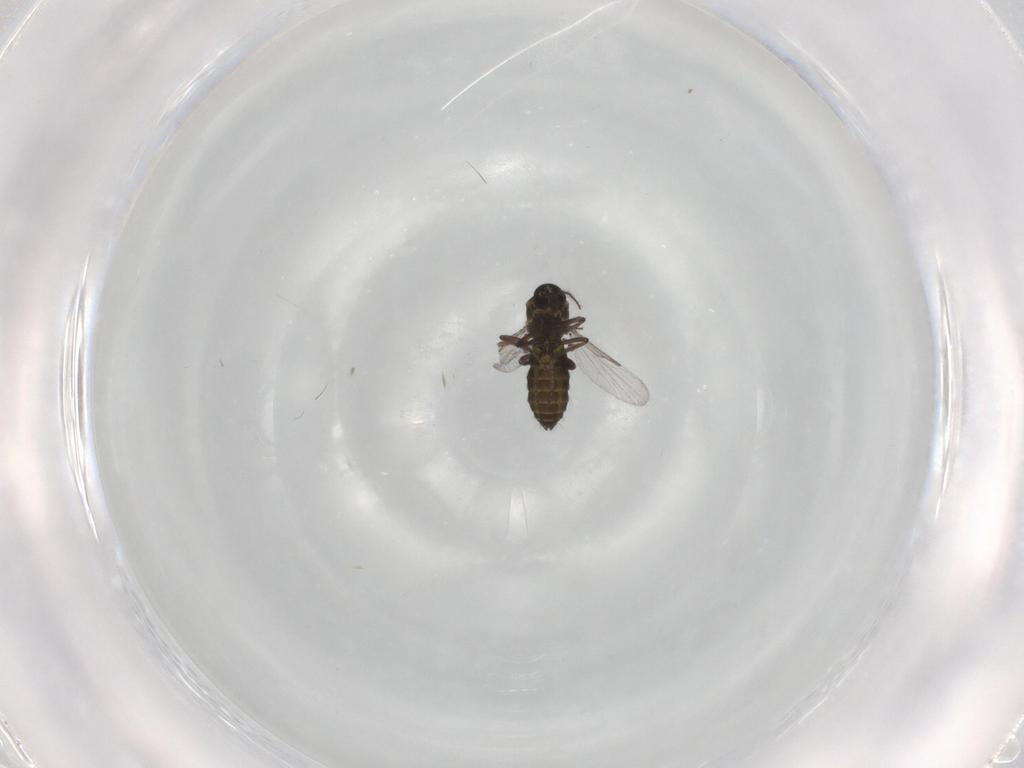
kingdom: Animalia
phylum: Arthropoda
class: Insecta
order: Diptera
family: Ceratopogonidae
